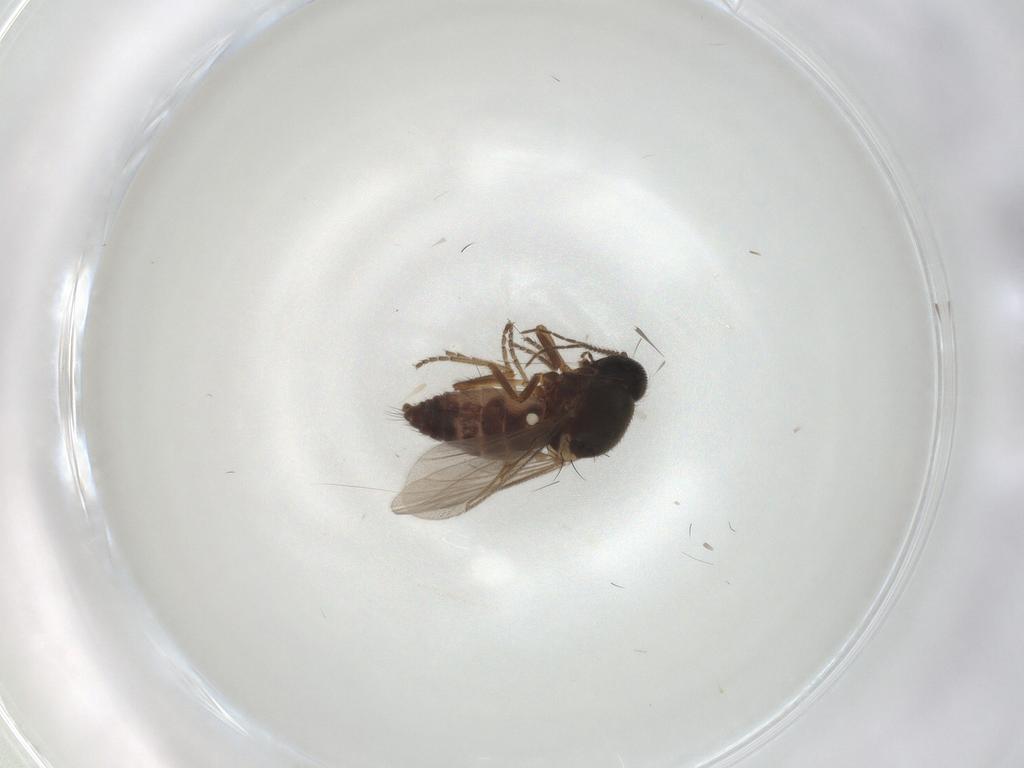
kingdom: Animalia
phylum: Arthropoda
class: Insecta
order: Diptera
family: Ceratopogonidae
